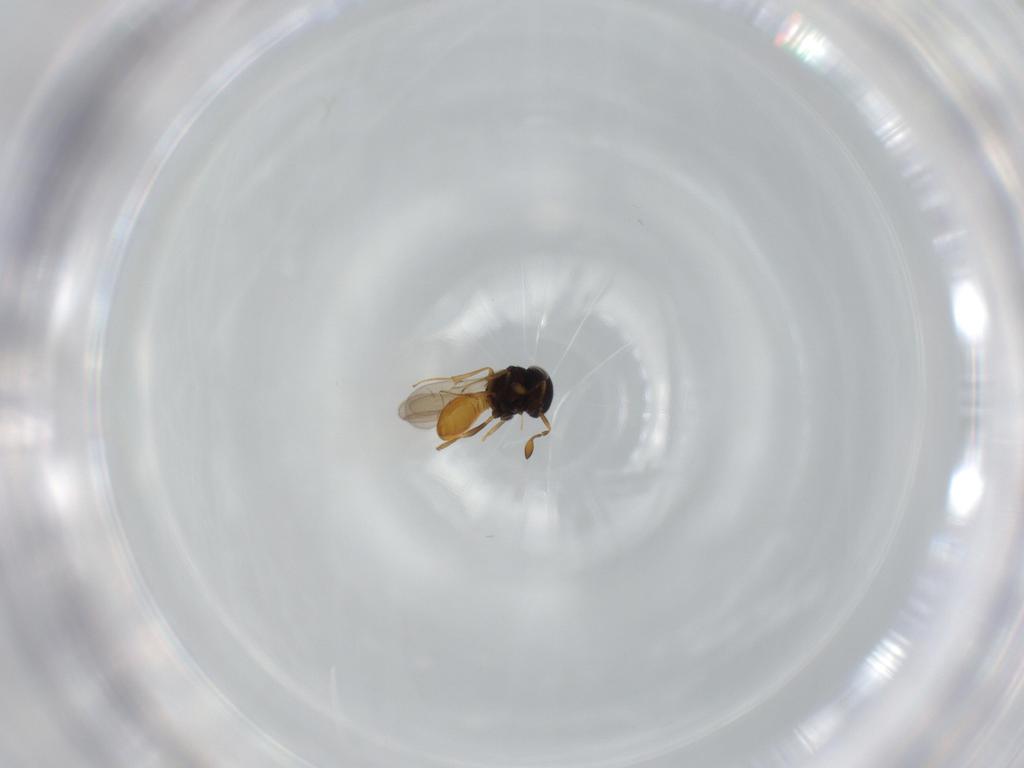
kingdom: Animalia
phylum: Arthropoda
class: Insecta
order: Hymenoptera
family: Scelionidae
